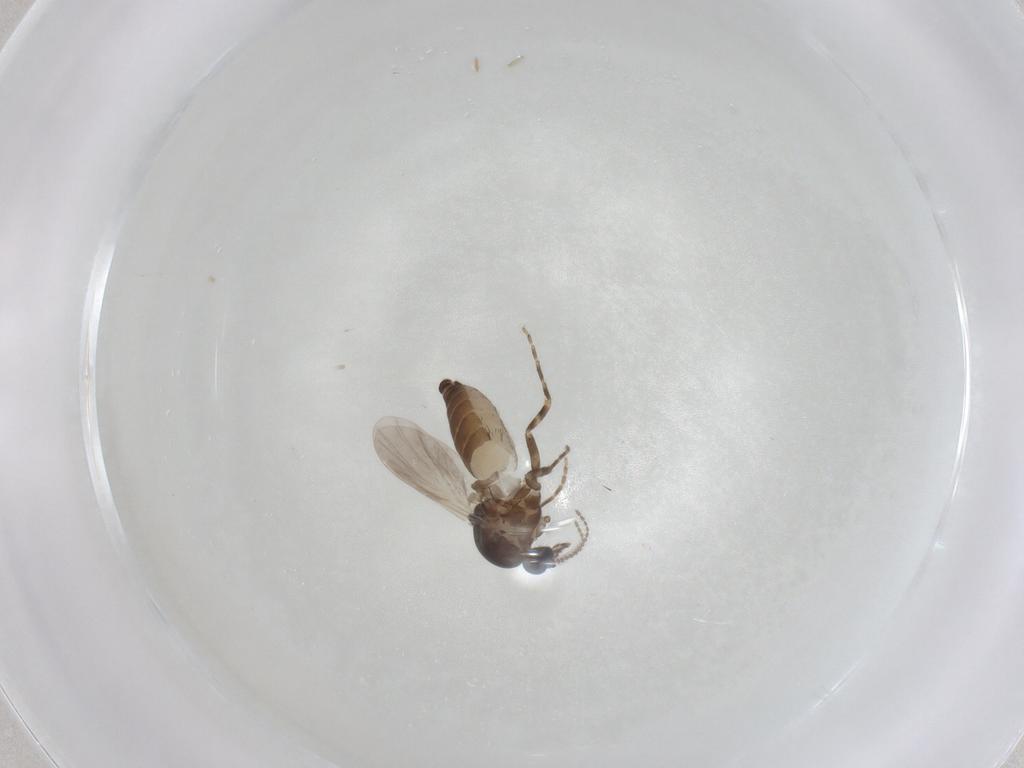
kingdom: Animalia
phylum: Arthropoda
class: Insecta
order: Diptera
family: Ceratopogonidae
